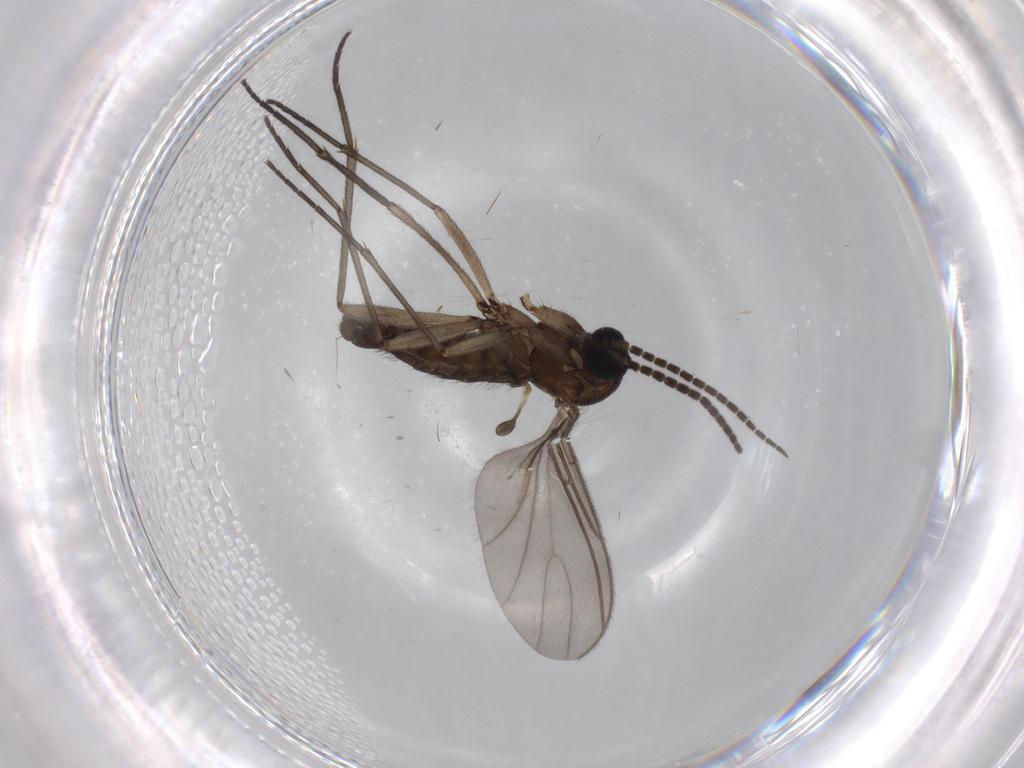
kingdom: Animalia
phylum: Arthropoda
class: Insecta
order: Diptera
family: Sciaridae
